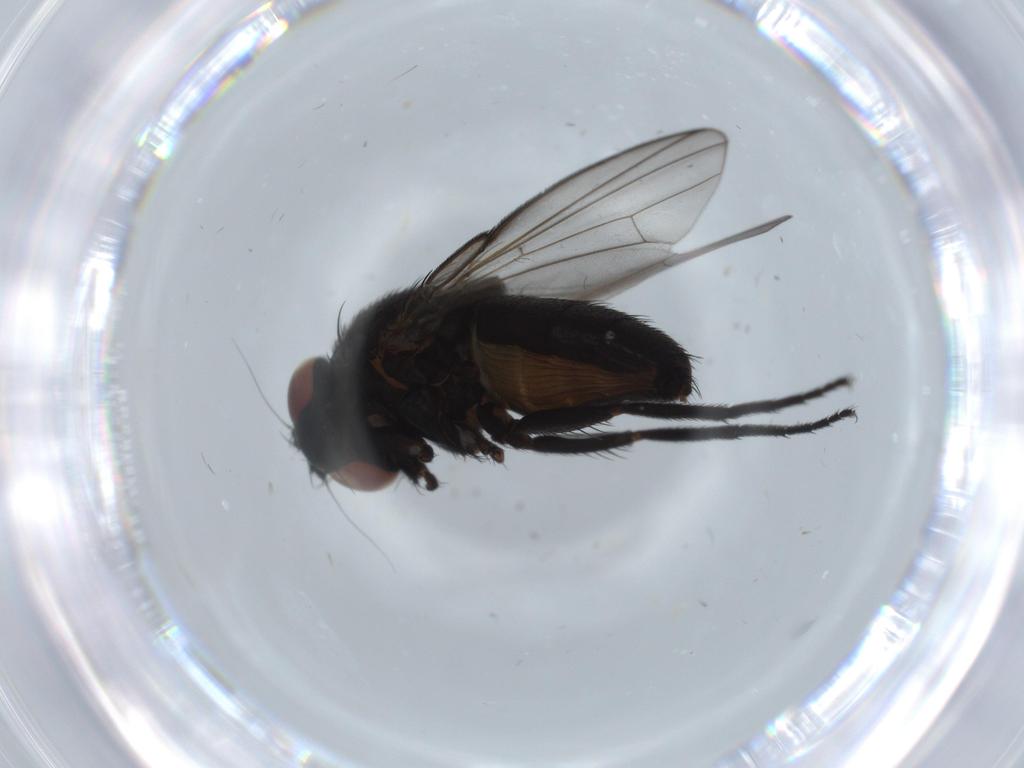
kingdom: Animalia
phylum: Arthropoda
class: Insecta
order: Diptera
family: Milichiidae
